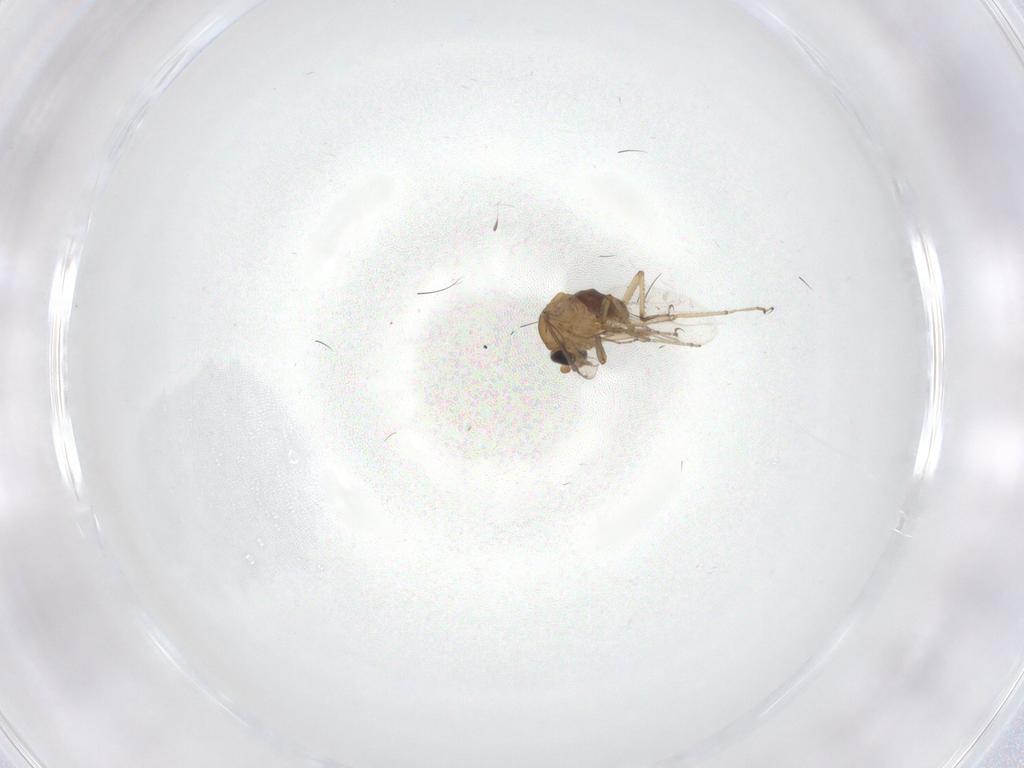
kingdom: Animalia
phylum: Arthropoda
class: Insecta
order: Diptera
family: Ceratopogonidae
